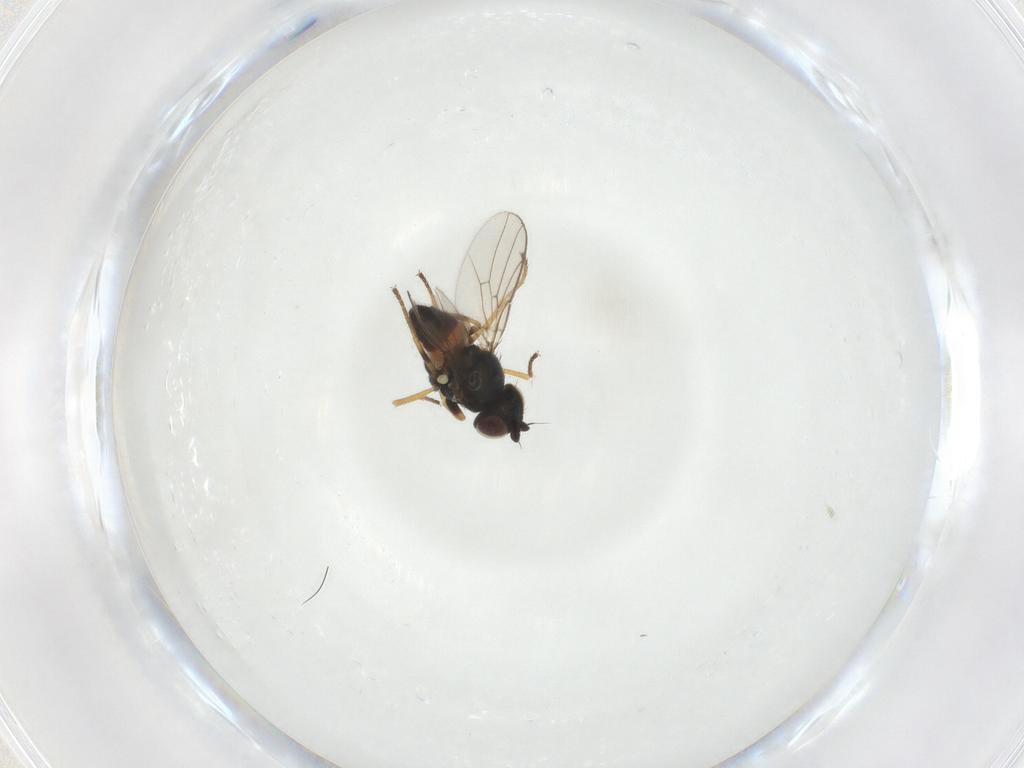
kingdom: Animalia
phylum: Arthropoda
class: Insecta
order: Diptera
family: Chloropidae
